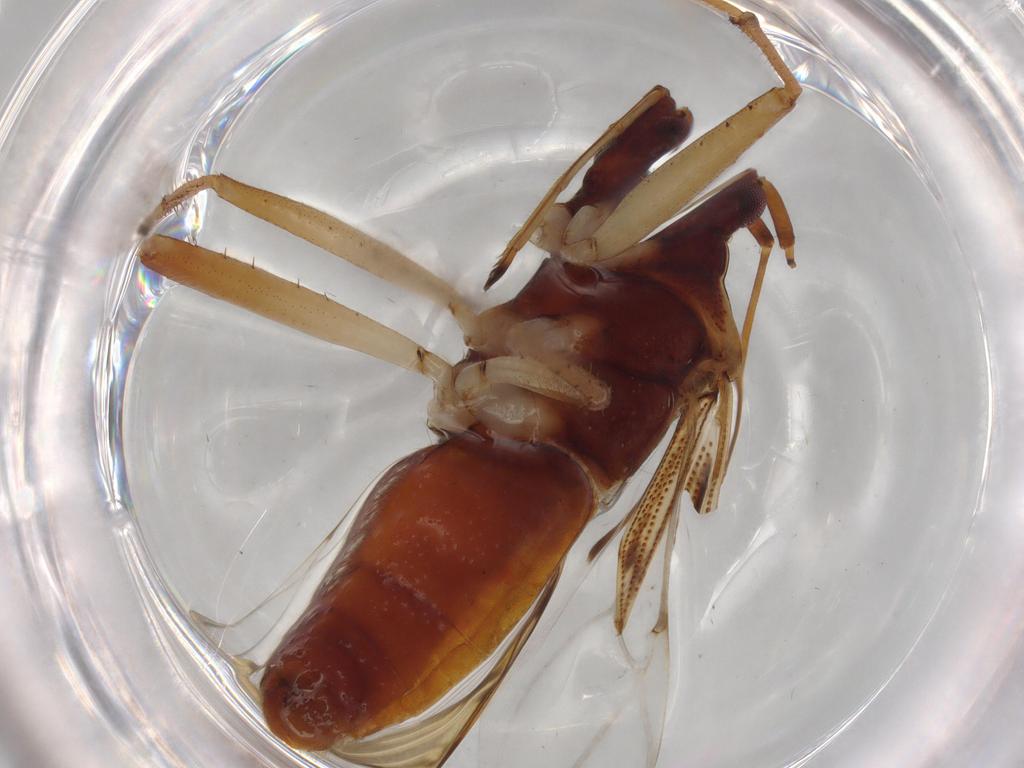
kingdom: Animalia
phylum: Arthropoda
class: Insecta
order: Hemiptera
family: Rhyparochromidae
